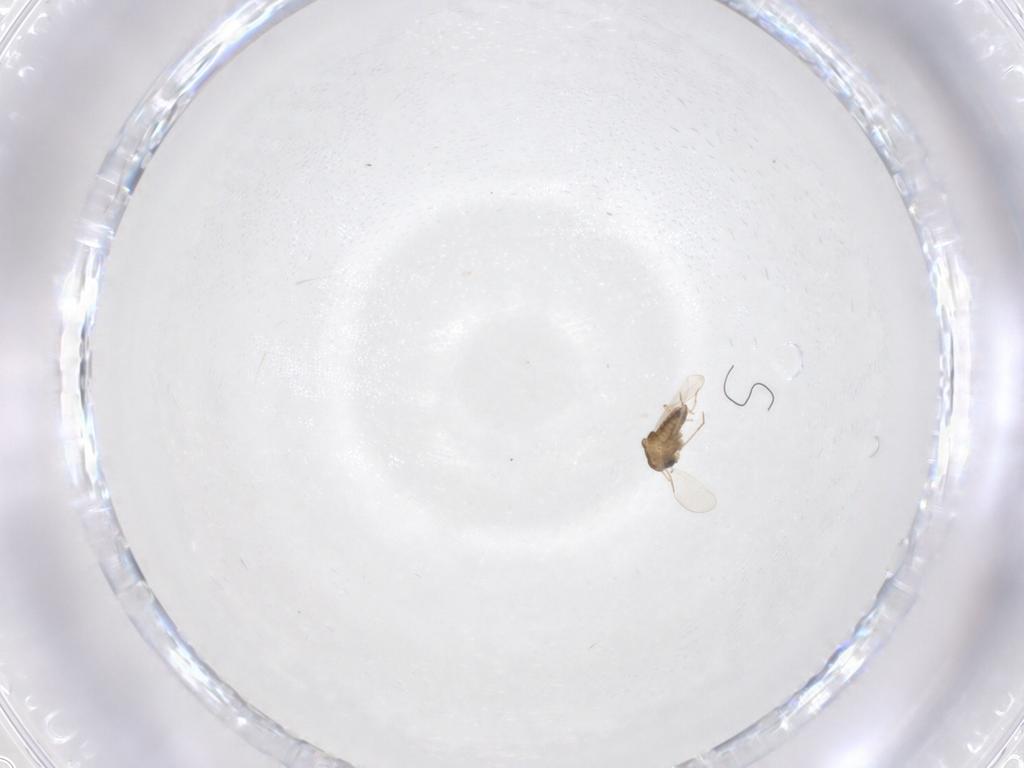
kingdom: Animalia
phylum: Arthropoda
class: Insecta
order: Diptera
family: Chironomidae
